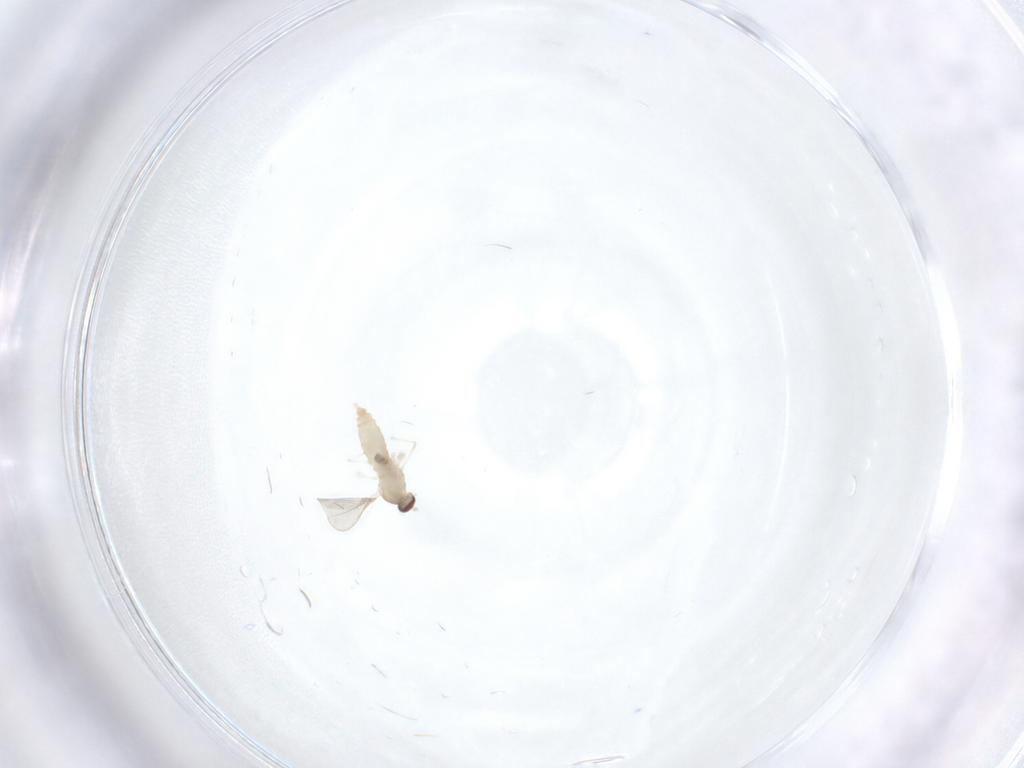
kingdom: Animalia
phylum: Arthropoda
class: Insecta
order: Diptera
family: Cecidomyiidae
